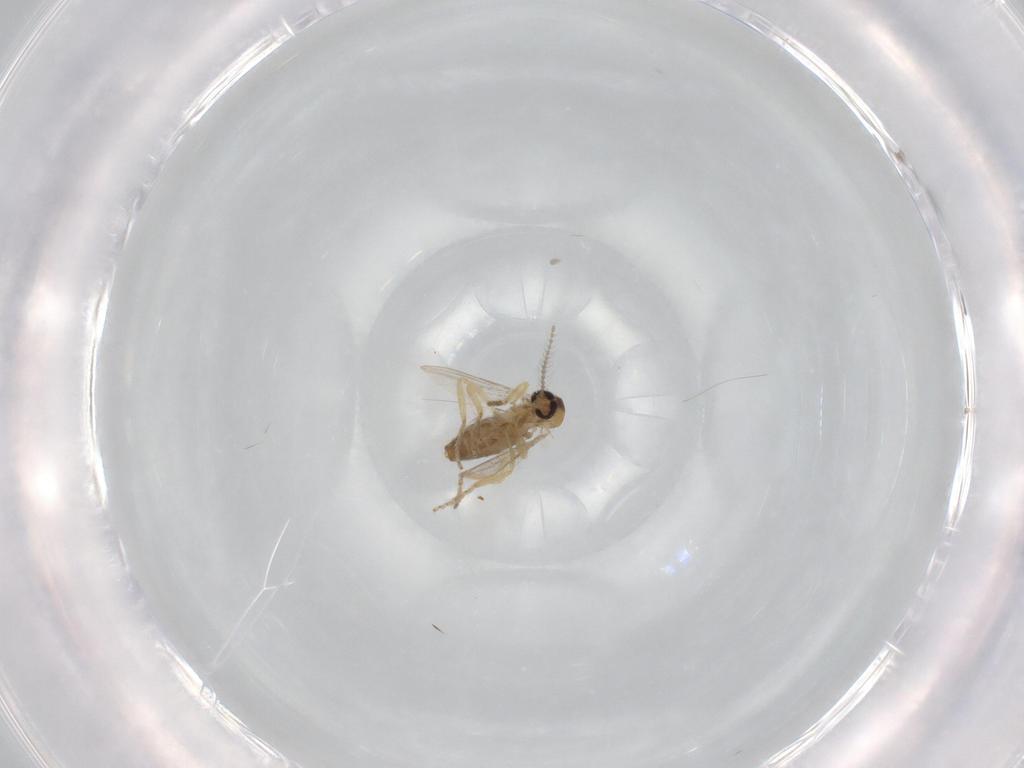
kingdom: Animalia
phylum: Arthropoda
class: Insecta
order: Diptera
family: Ceratopogonidae
